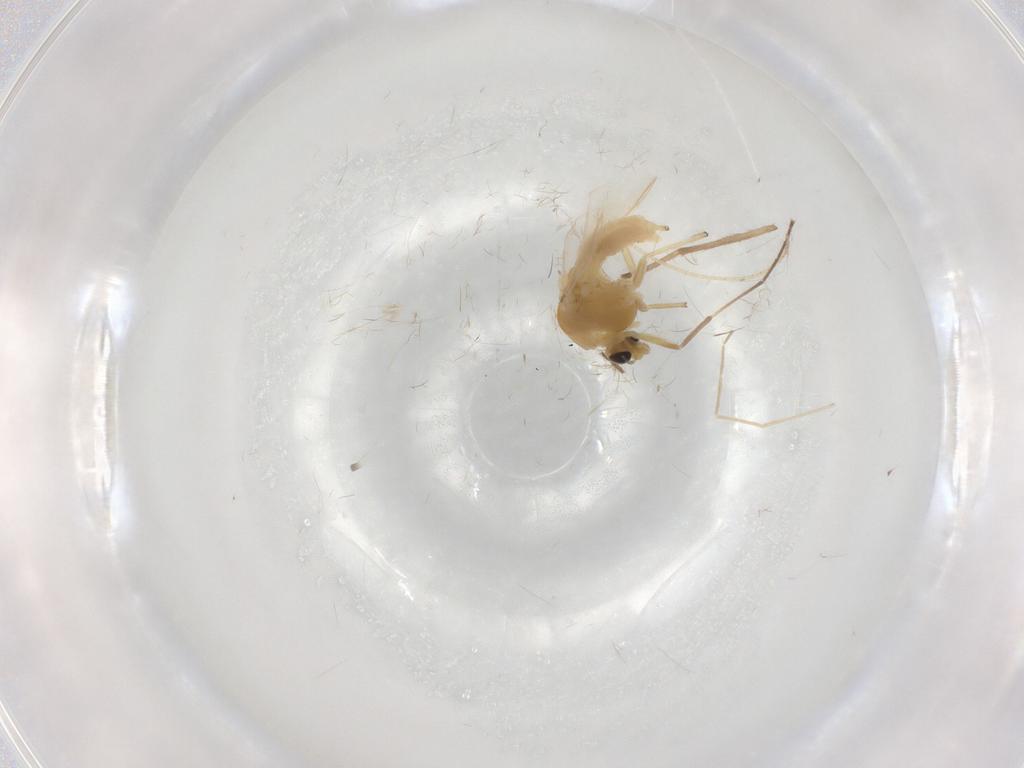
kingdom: Animalia
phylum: Arthropoda
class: Insecta
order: Diptera
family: Chironomidae
